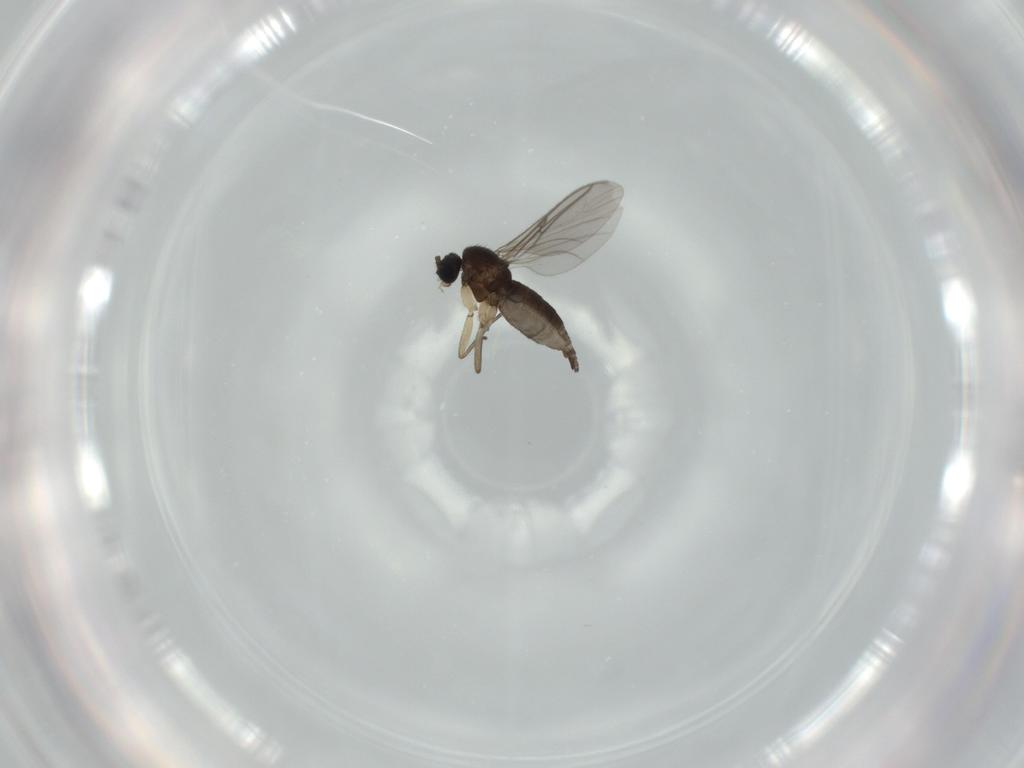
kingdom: Animalia
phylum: Arthropoda
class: Insecta
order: Diptera
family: Sciaridae
